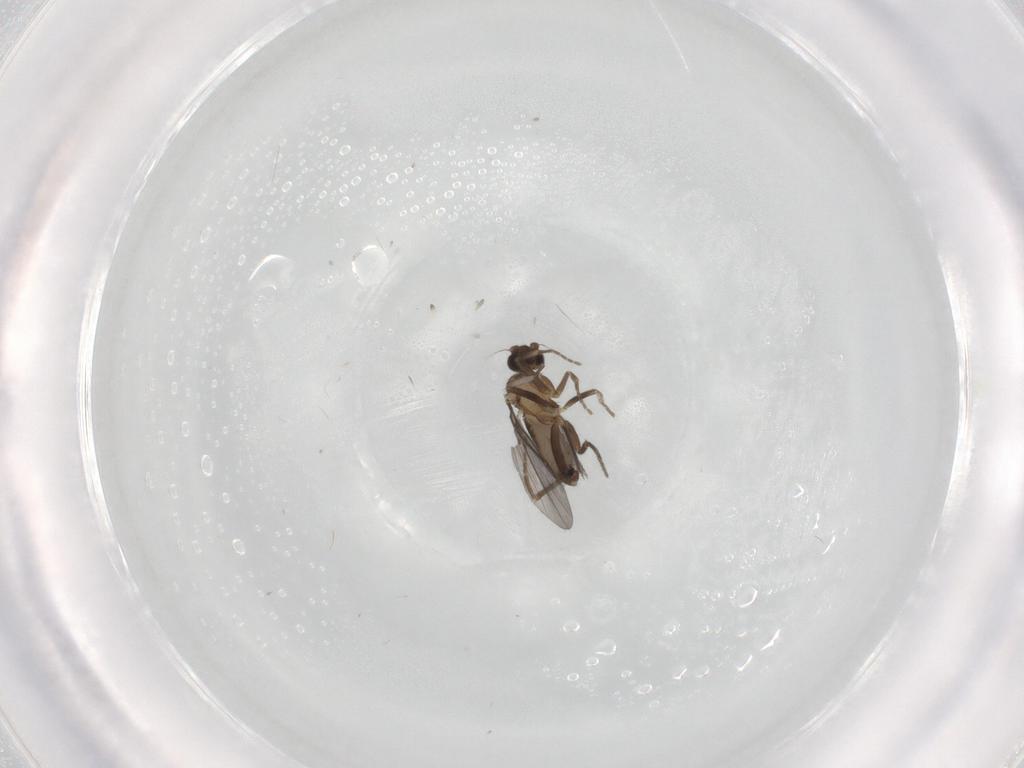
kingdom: Animalia
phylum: Arthropoda
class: Insecta
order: Diptera
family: Phoridae
